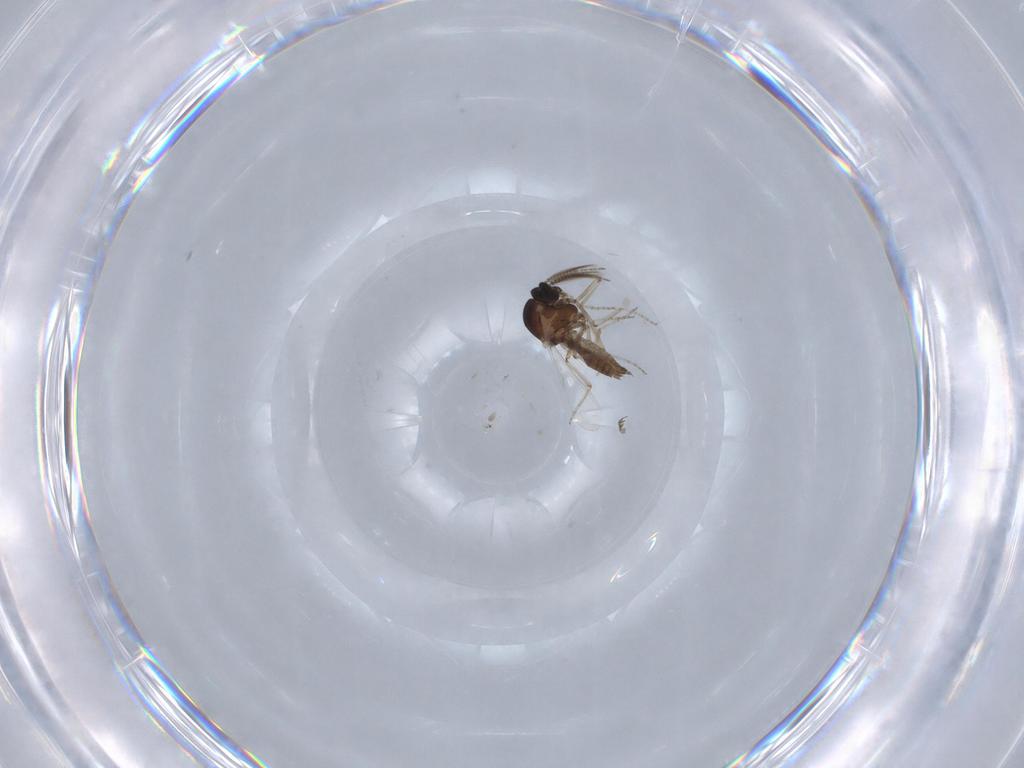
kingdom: Animalia
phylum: Arthropoda
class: Insecta
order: Diptera
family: Ceratopogonidae
